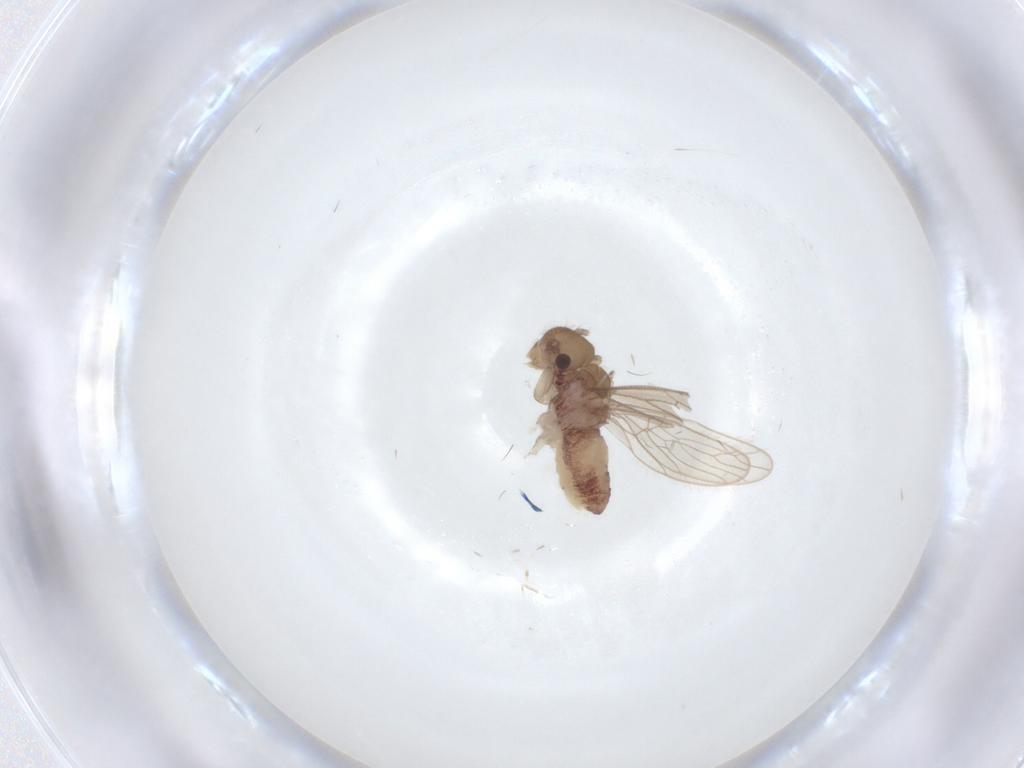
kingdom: Animalia
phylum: Arthropoda
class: Insecta
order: Psocodea
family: Cladiopsocidae
